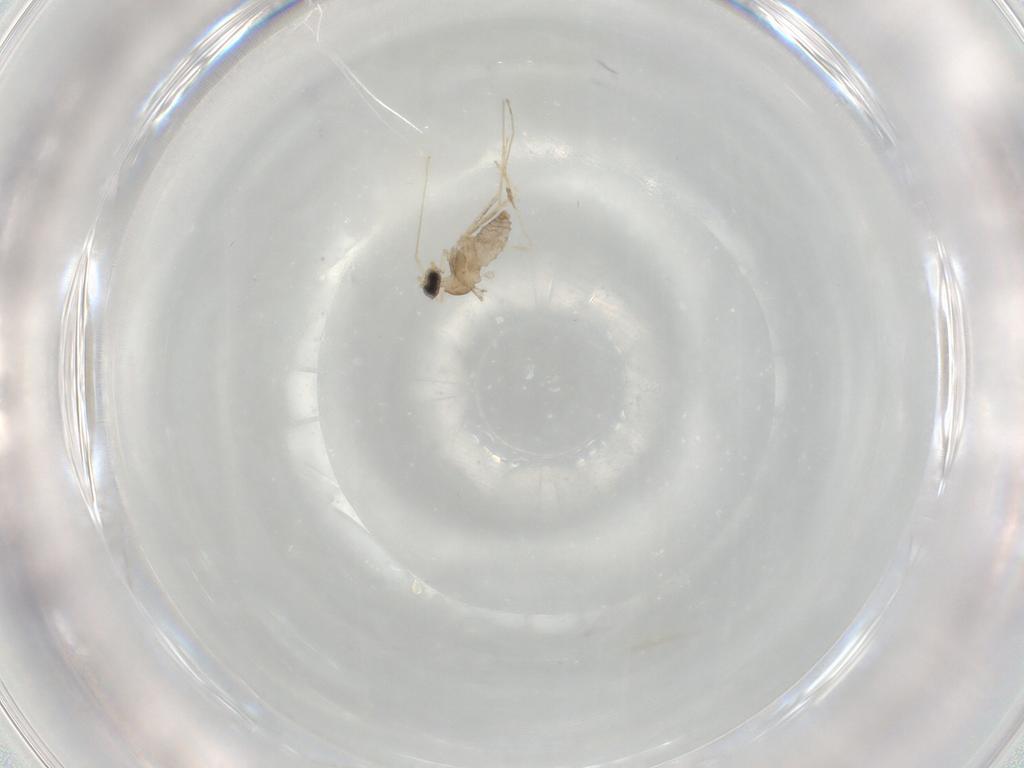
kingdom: Animalia
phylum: Arthropoda
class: Insecta
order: Diptera
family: Cecidomyiidae
